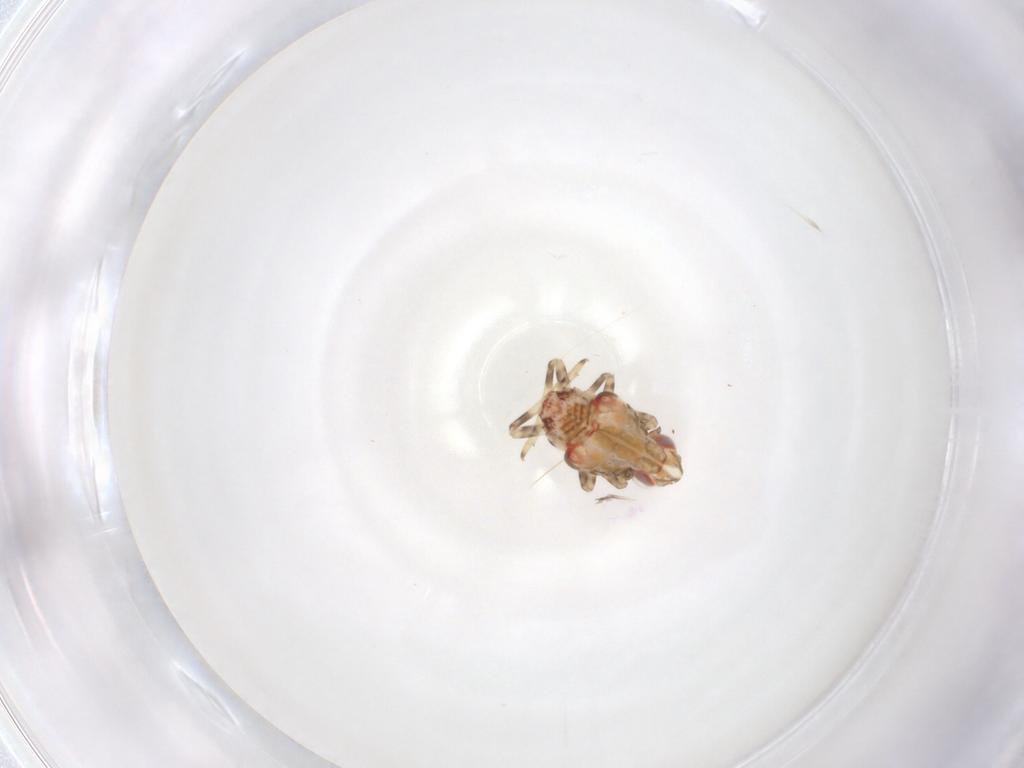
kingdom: Animalia
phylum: Arthropoda
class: Insecta
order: Hemiptera
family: Tropiduchidae
